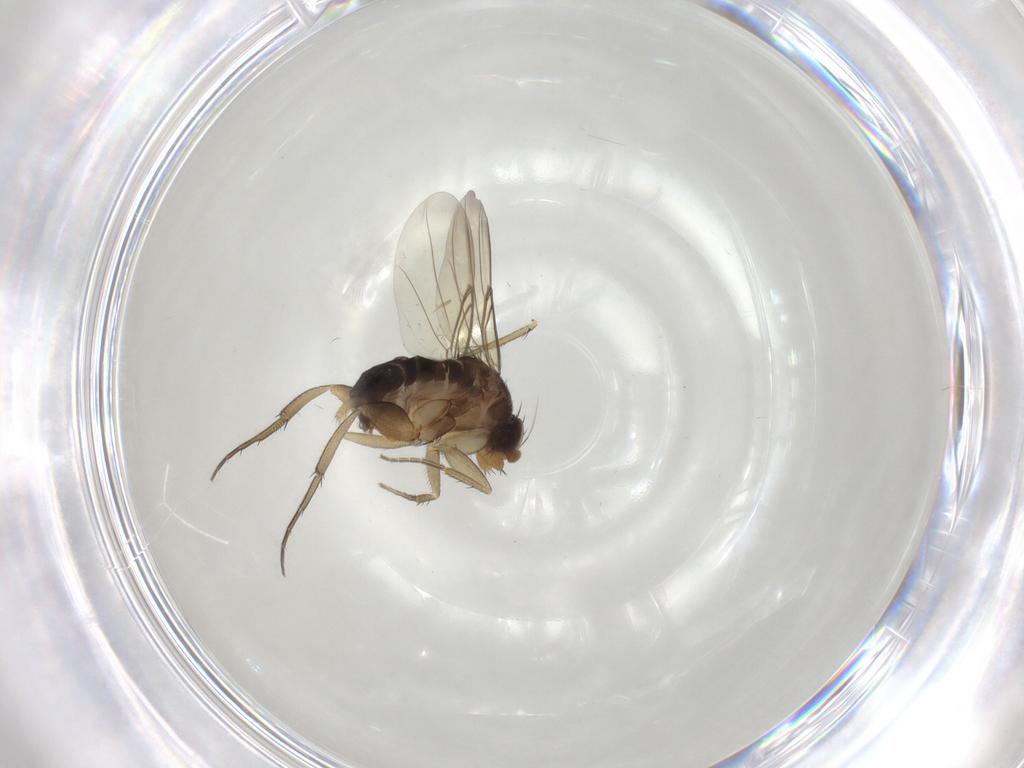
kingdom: Animalia
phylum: Arthropoda
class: Insecta
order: Diptera
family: Phoridae
